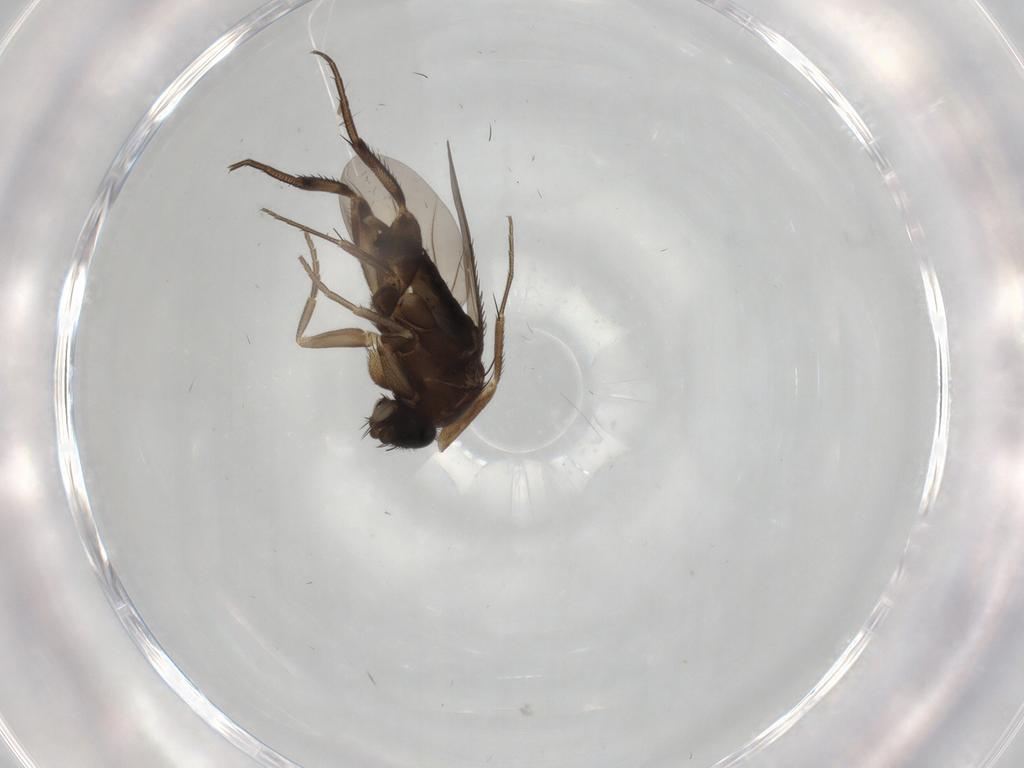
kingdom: Animalia
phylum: Arthropoda
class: Insecta
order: Diptera
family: Phoridae
